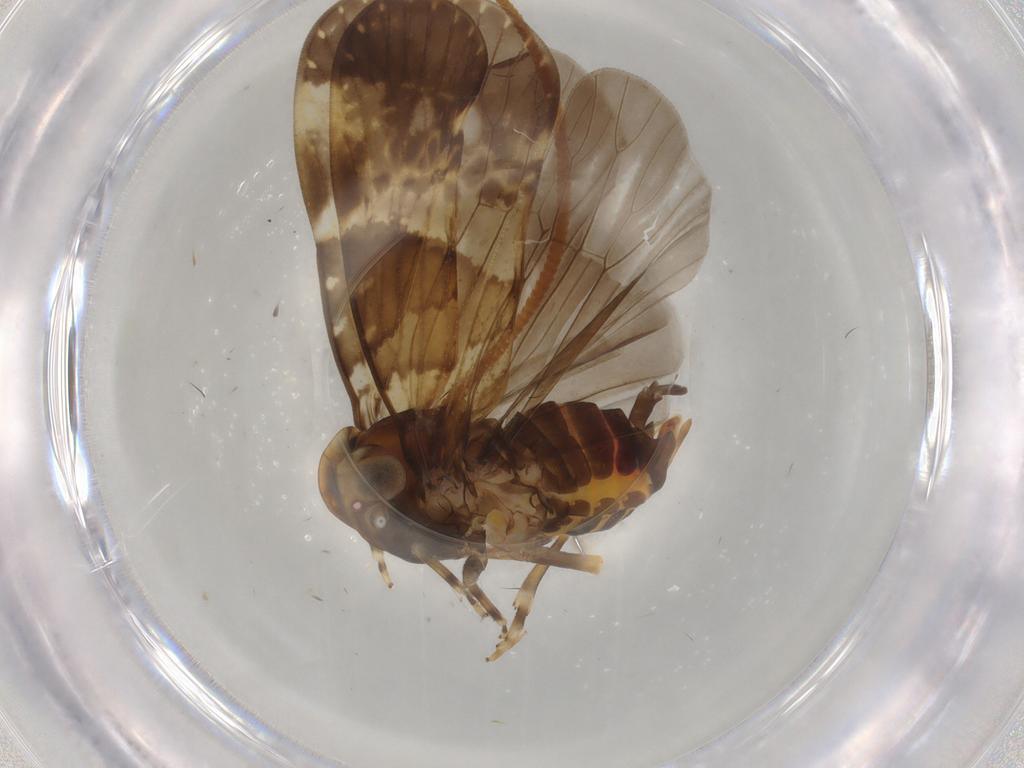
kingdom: Animalia
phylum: Arthropoda
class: Insecta
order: Hemiptera
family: Cixiidae
